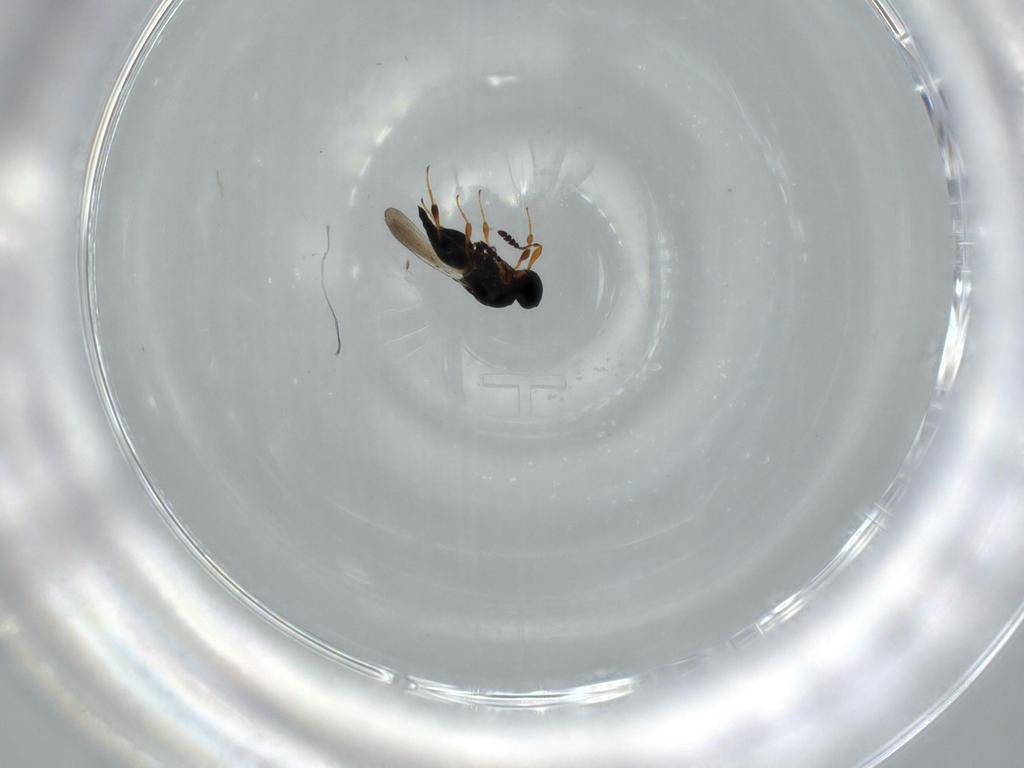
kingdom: Animalia
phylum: Arthropoda
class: Insecta
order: Hymenoptera
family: Platygastridae
